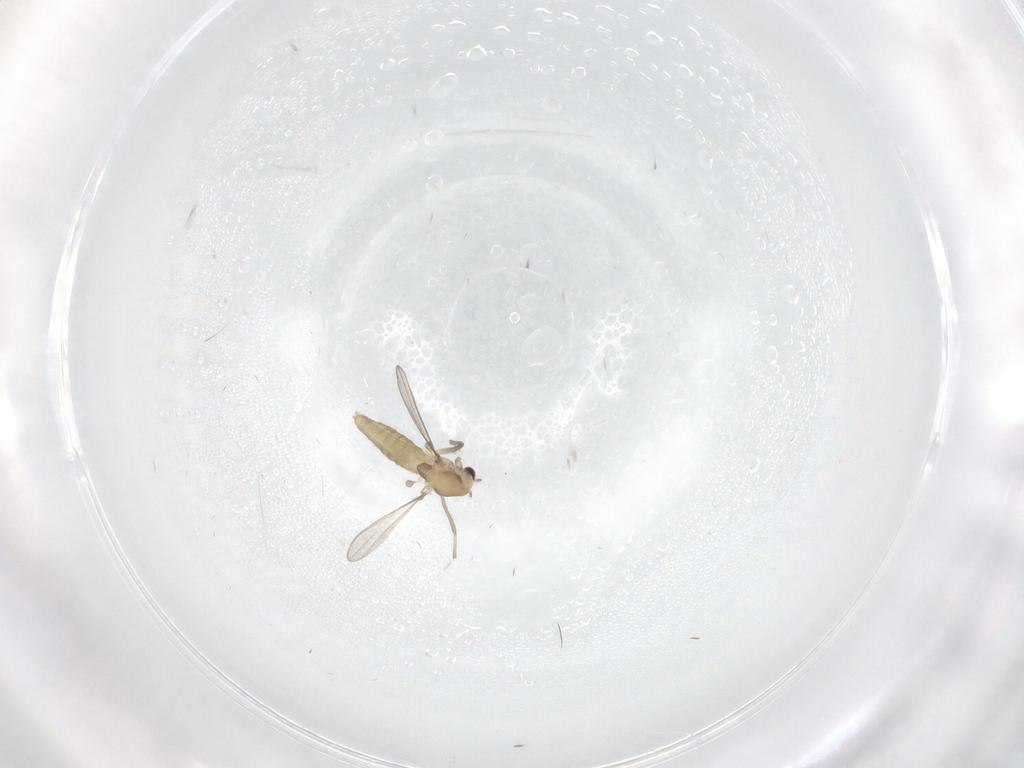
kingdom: Animalia
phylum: Arthropoda
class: Insecta
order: Diptera
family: Chironomidae
